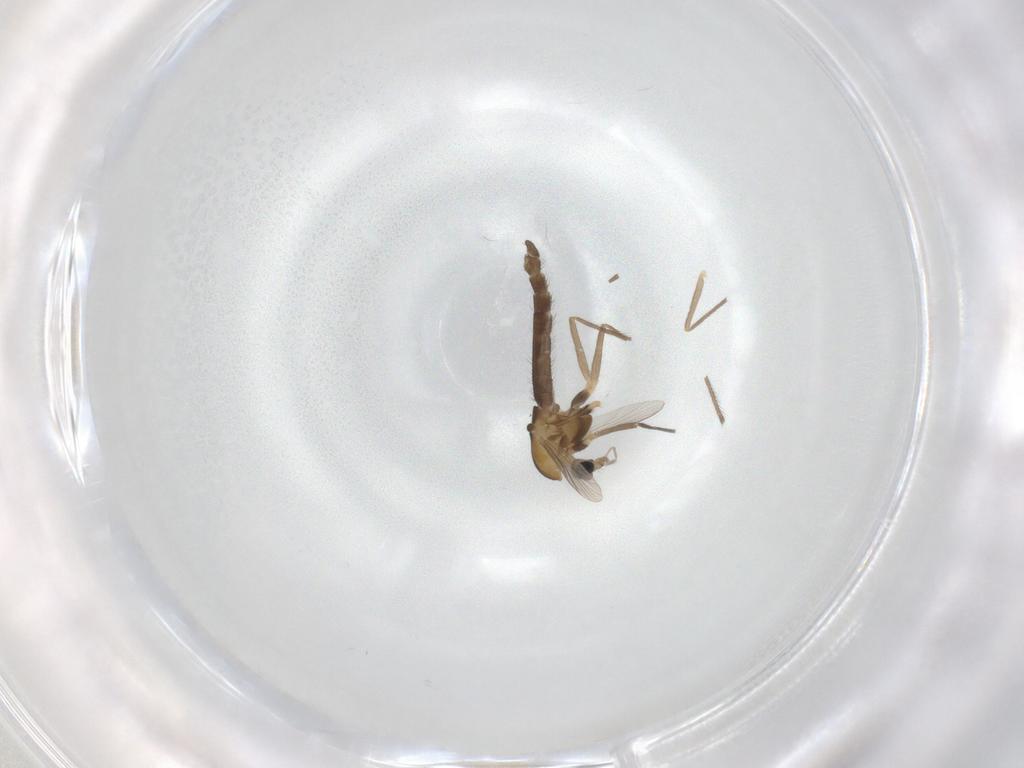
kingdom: Animalia
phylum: Arthropoda
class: Insecta
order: Diptera
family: Chironomidae
